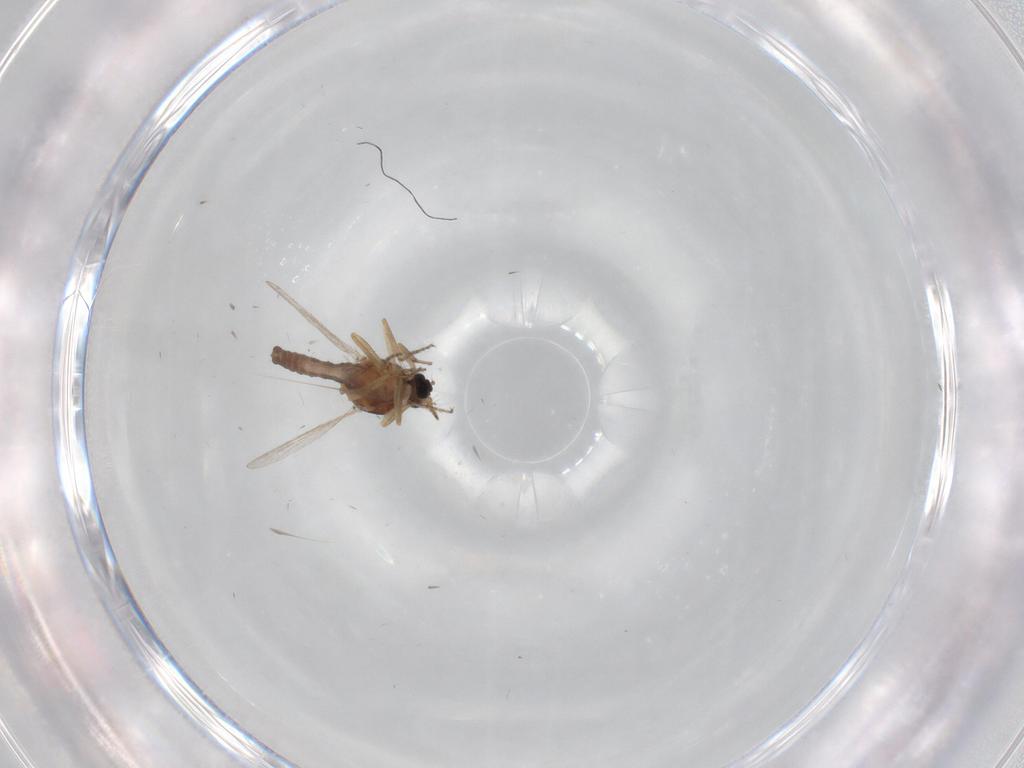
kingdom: Animalia
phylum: Arthropoda
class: Insecta
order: Diptera
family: Ceratopogonidae
